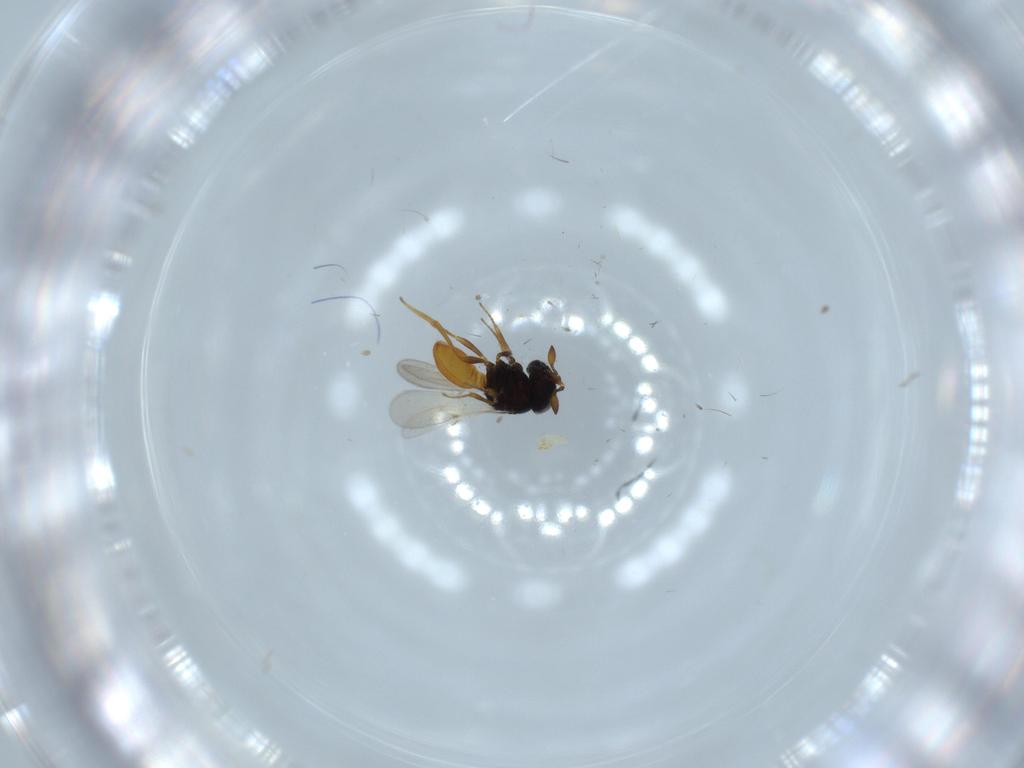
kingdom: Animalia
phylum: Arthropoda
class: Insecta
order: Hymenoptera
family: Scelionidae
